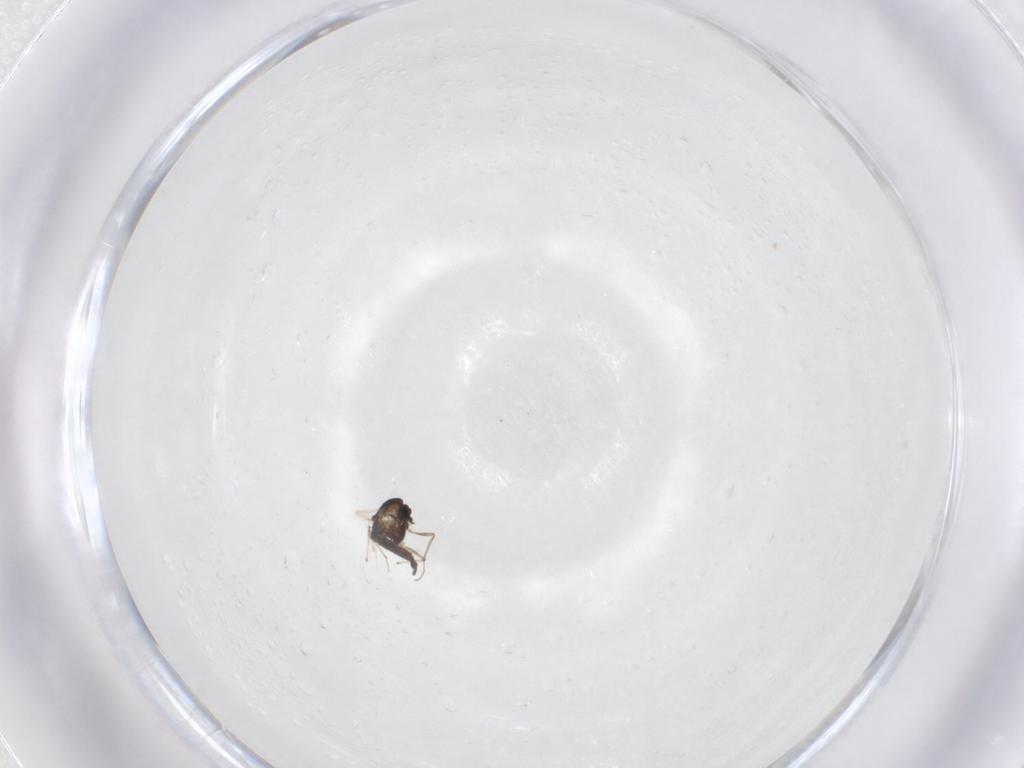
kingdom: Animalia
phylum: Arthropoda
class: Insecta
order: Diptera
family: Chironomidae
